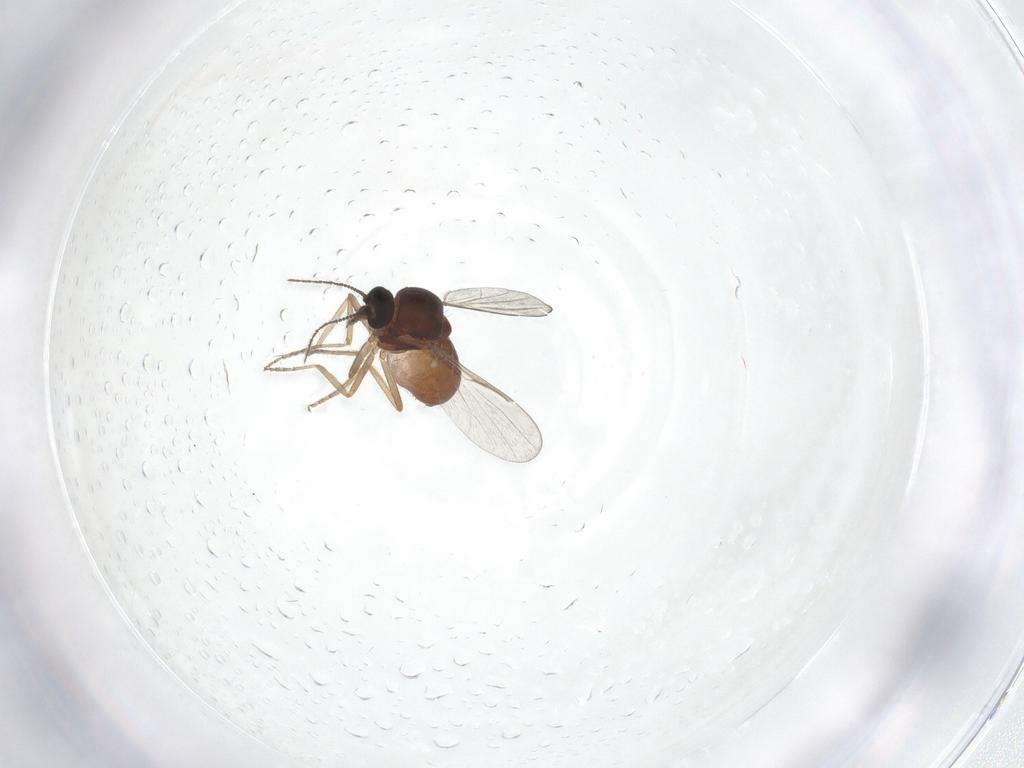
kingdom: Animalia
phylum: Arthropoda
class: Insecta
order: Diptera
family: Ceratopogonidae
